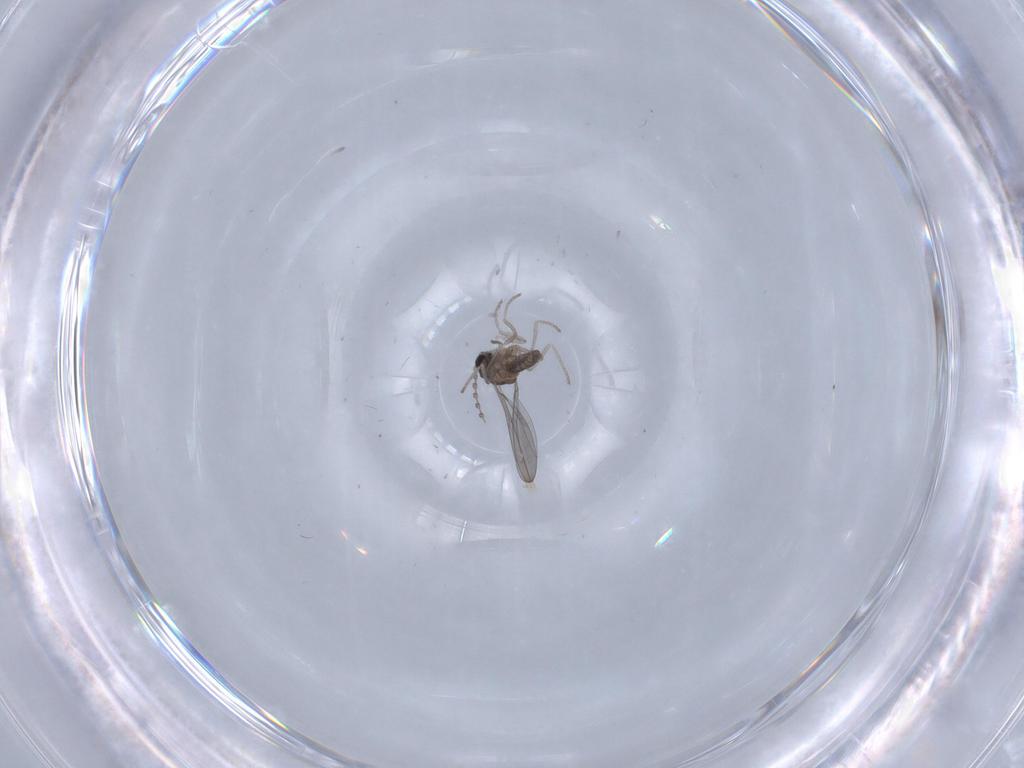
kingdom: Animalia
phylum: Arthropoda
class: Insecta
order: Diptera
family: Cecidomyiidae
